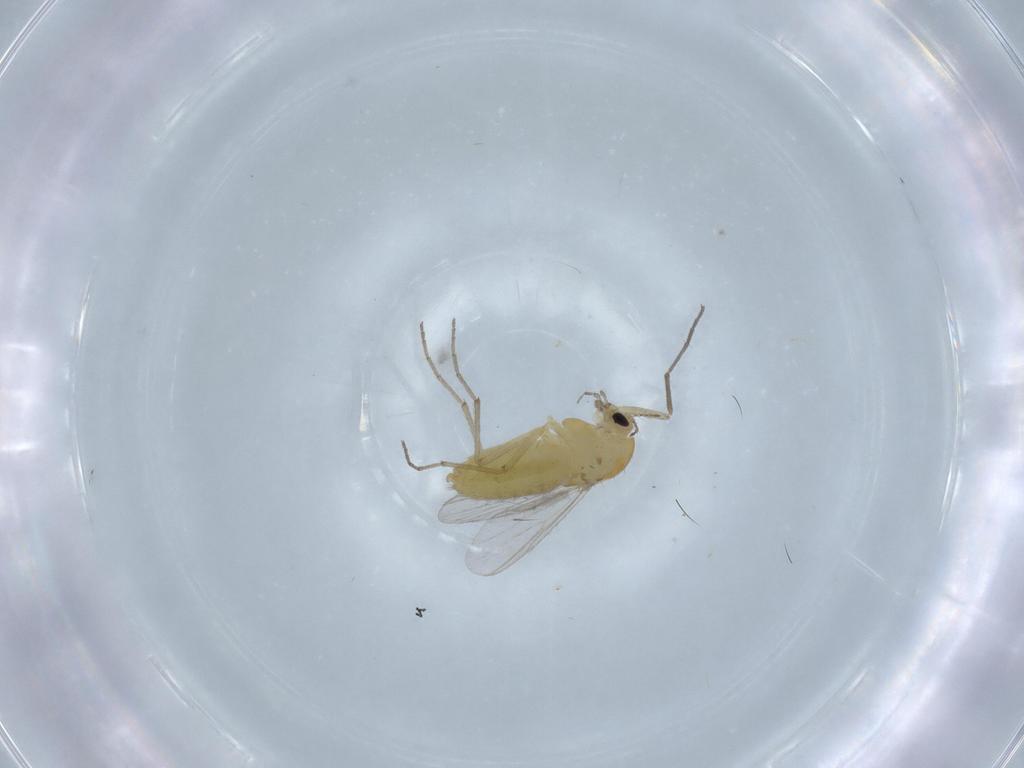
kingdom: Animalia
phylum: Arthropoda
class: Insecta
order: Diptera
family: Ceratopogonidae
